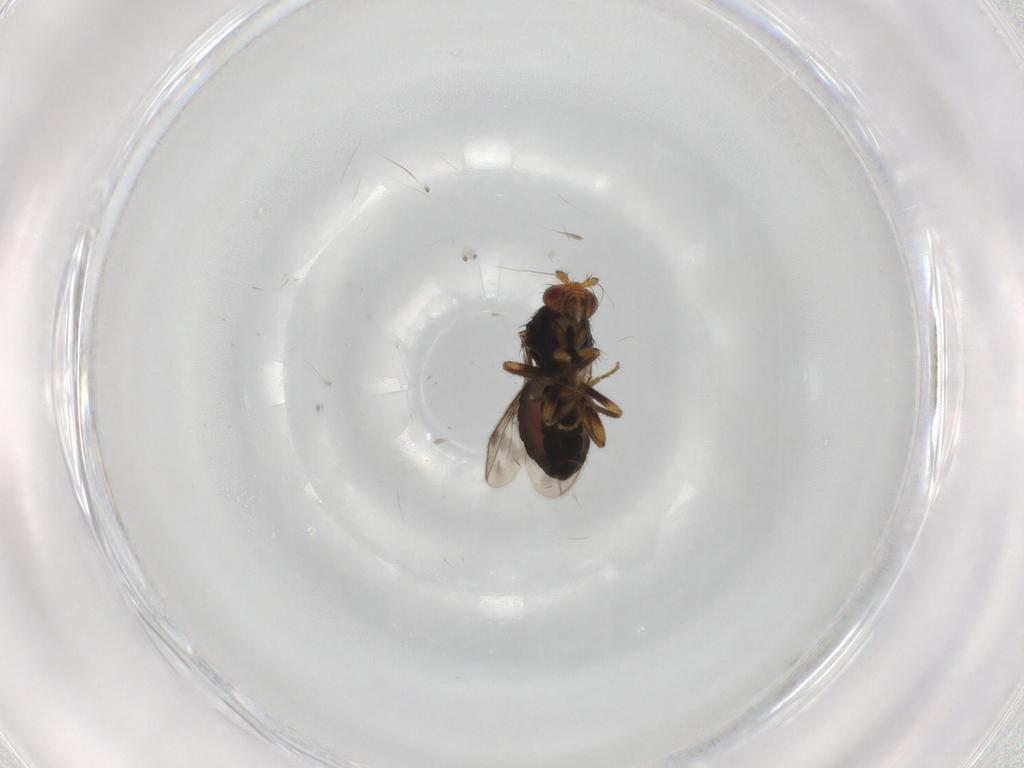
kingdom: Animalia
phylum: Arthropoda
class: Insecta
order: Diptera
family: Sphaeroceridae
